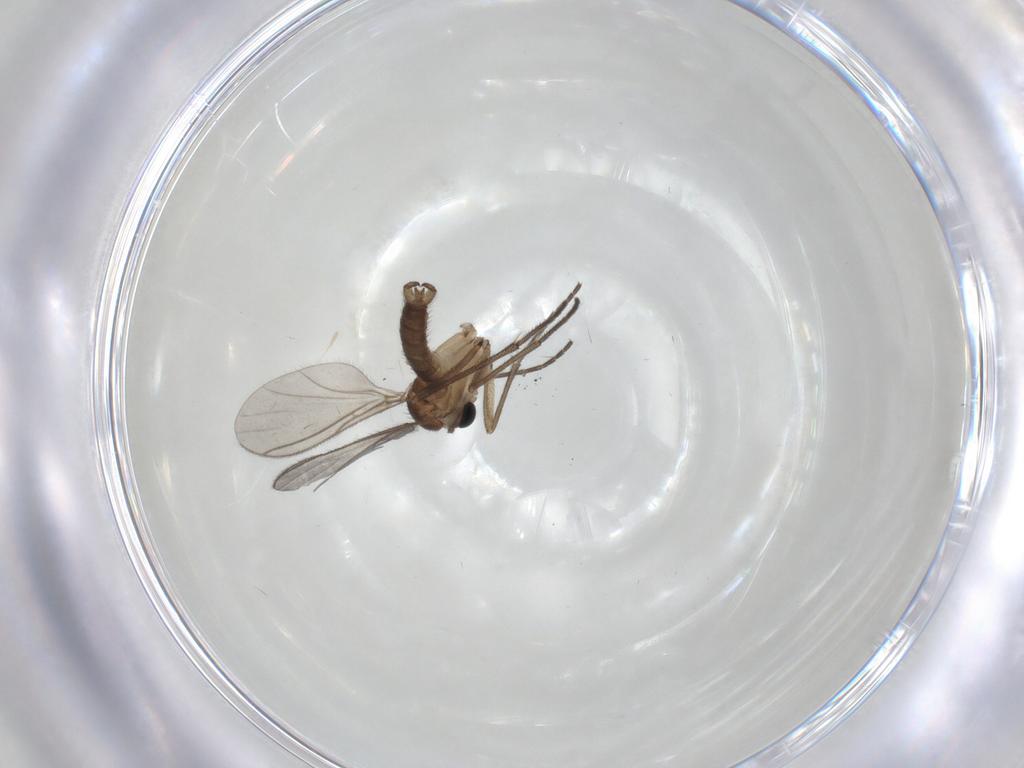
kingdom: Animalia
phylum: Arthropoda
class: Insecta
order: Diptera
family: Sciaridae
